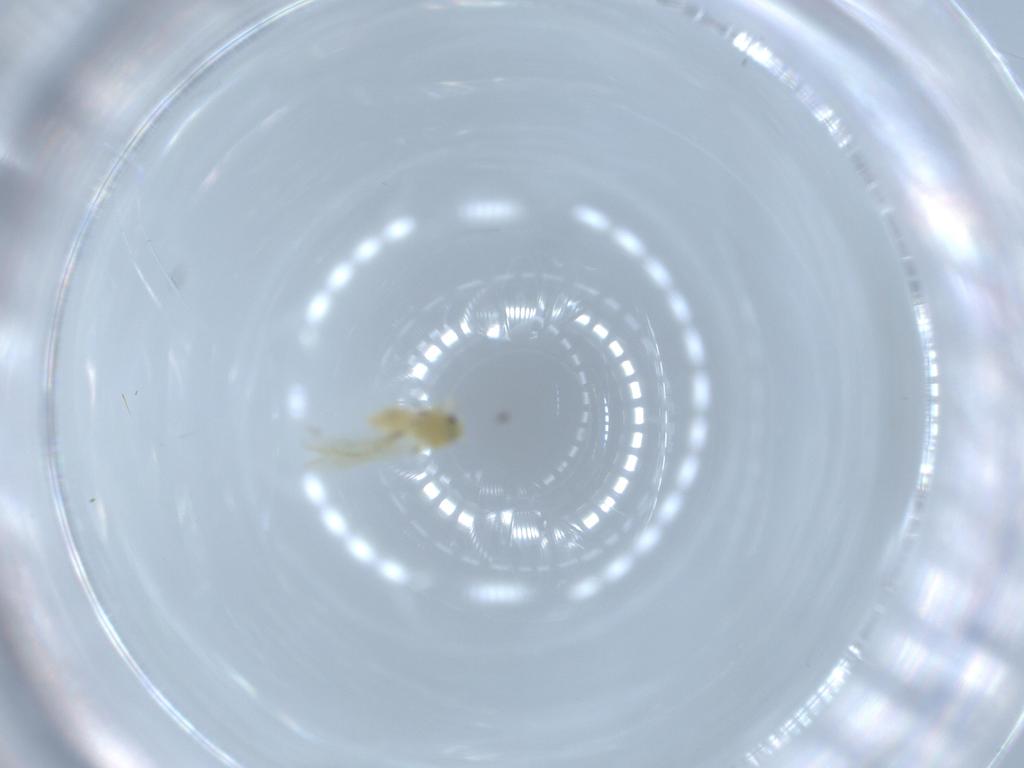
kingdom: Animalia
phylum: Arthropoda
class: Insecta
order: Hemiptera
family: Aleyrodidae
